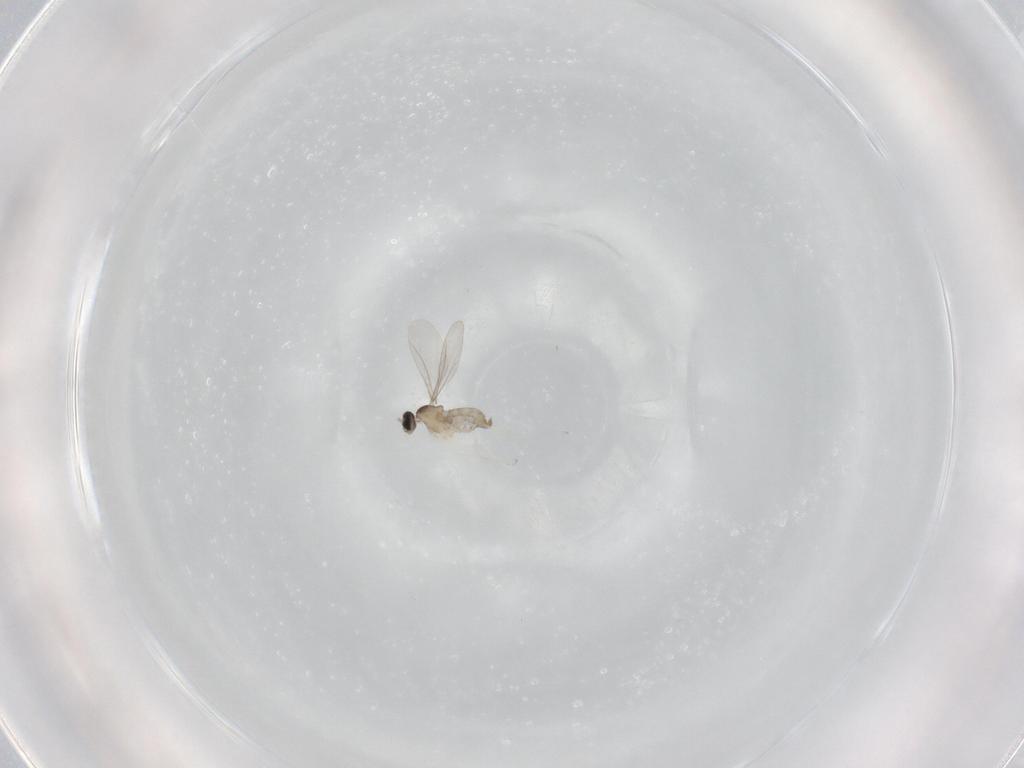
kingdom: Animalia
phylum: Arthropoda
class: Insecta
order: Diptera
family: Cecidomyiidae
